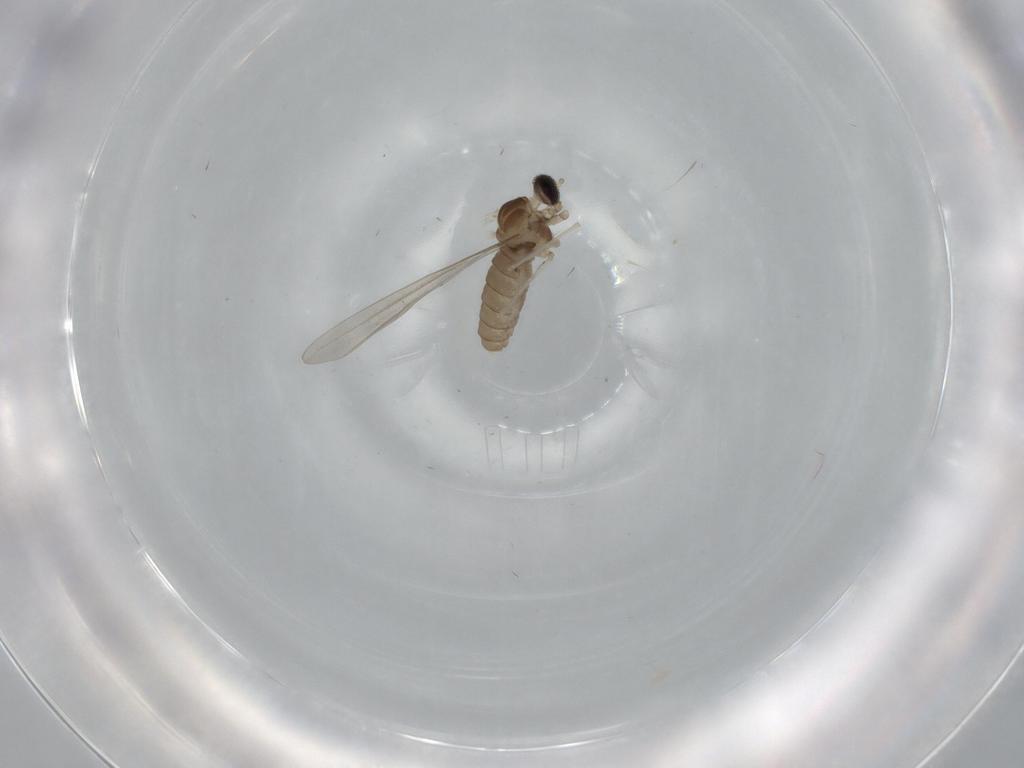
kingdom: Animalia
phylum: Arthropoda
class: Insecta
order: Diptera
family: Cecidomyiidae
